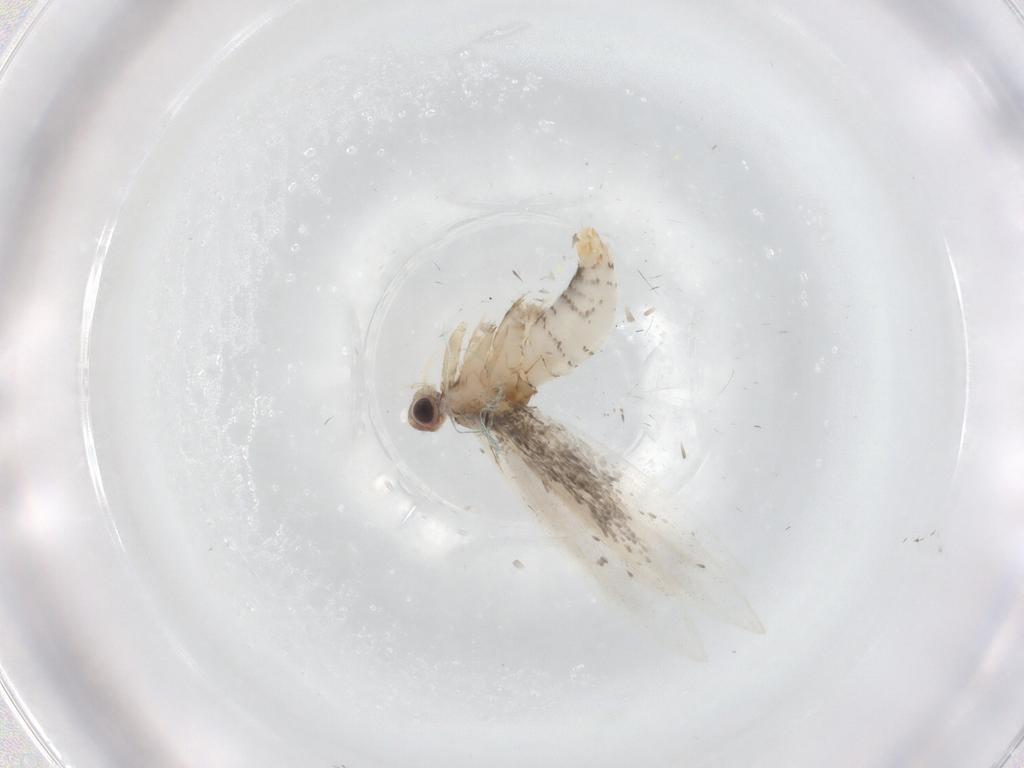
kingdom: Animalia
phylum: Arthropoda
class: Insecta
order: Lepidoptera
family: Tineidae
